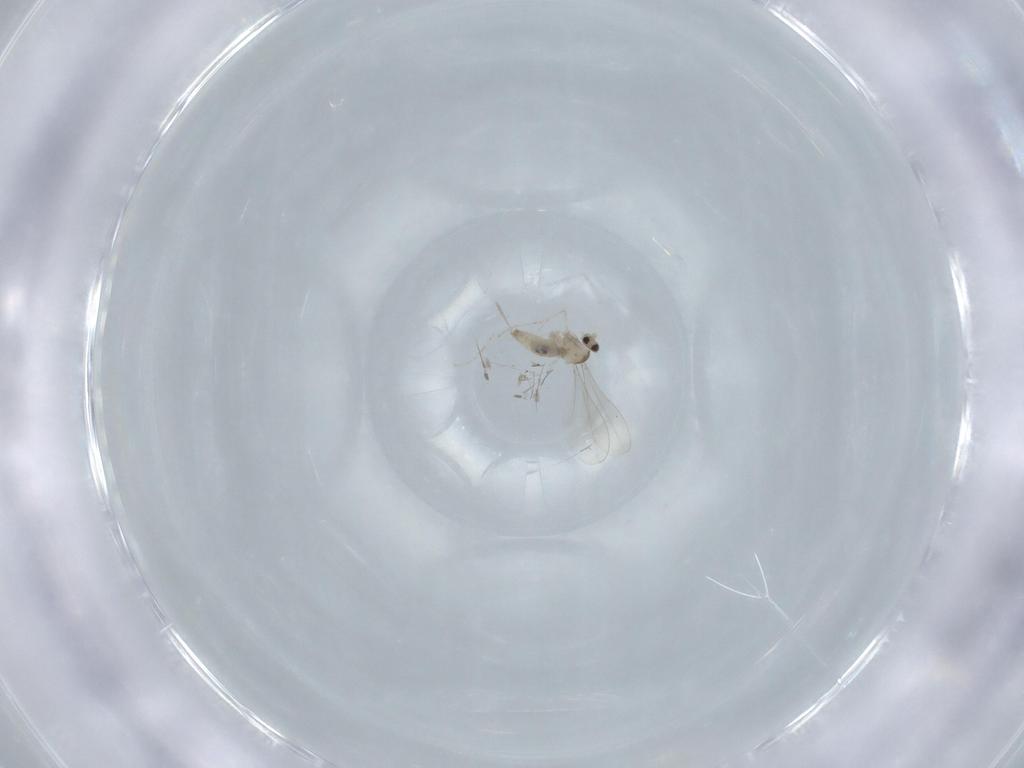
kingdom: Animalia
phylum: Arthropoda
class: Insecta
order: Diptera
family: Cecidomyiidae
